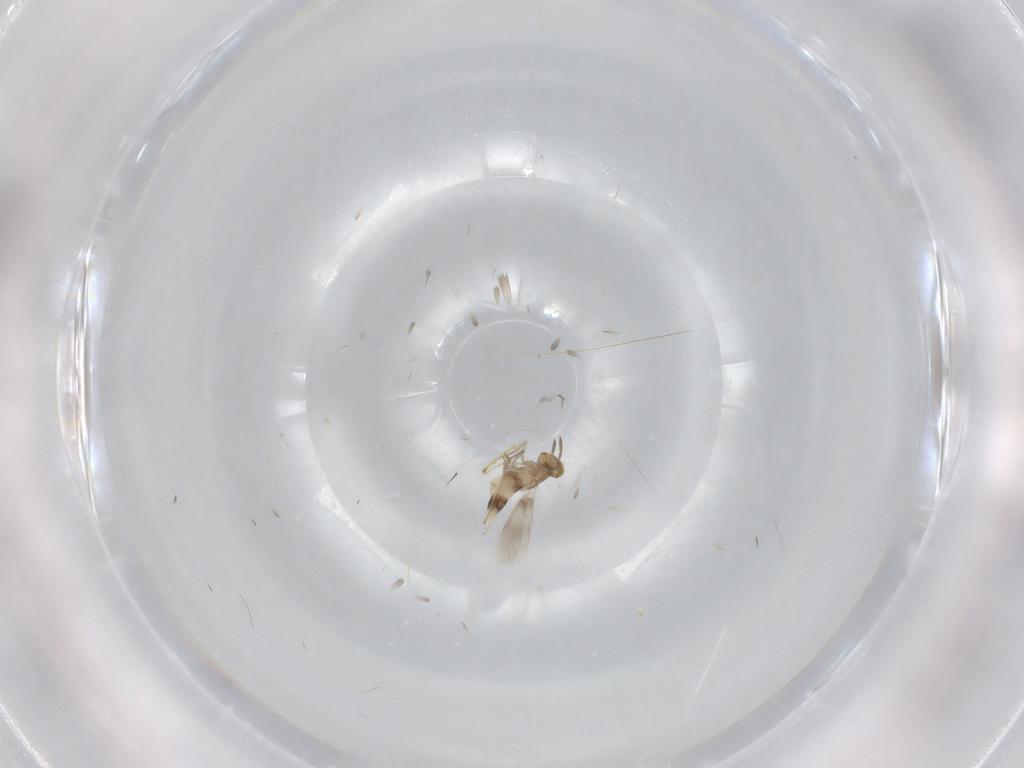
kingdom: Animalia
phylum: Arthropoda
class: Insecta
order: Hymenoptera
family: Aphelinidae
